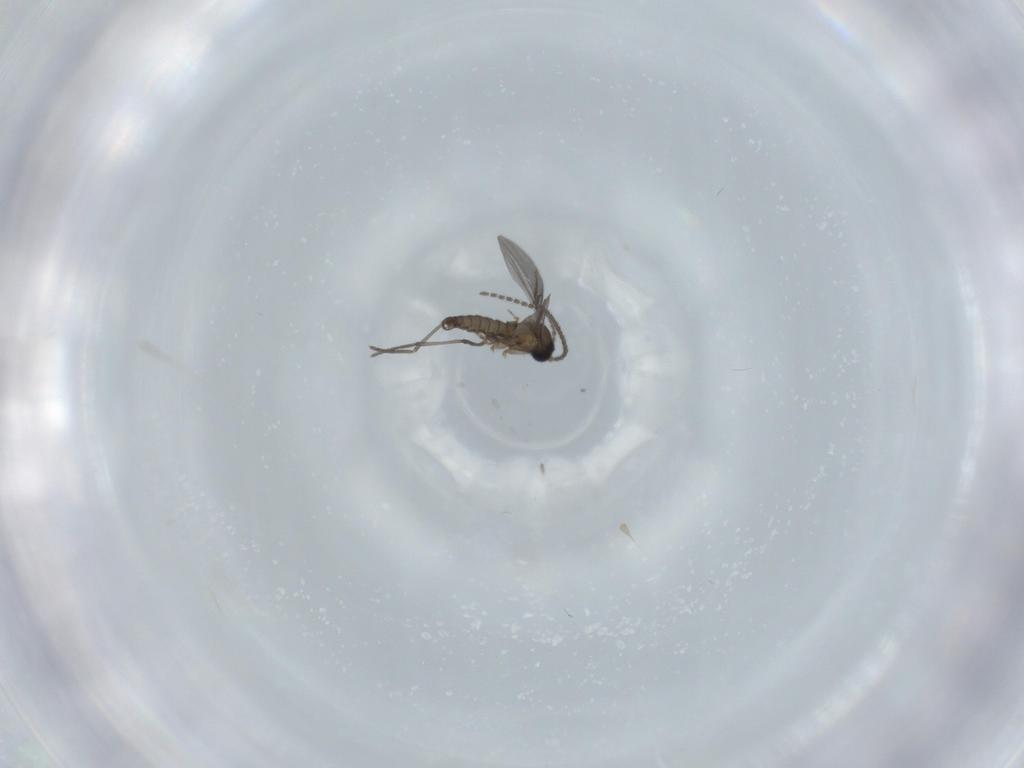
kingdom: Animalia
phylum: Arthropoda
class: Insecta
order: Diptera
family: Sciaridae
